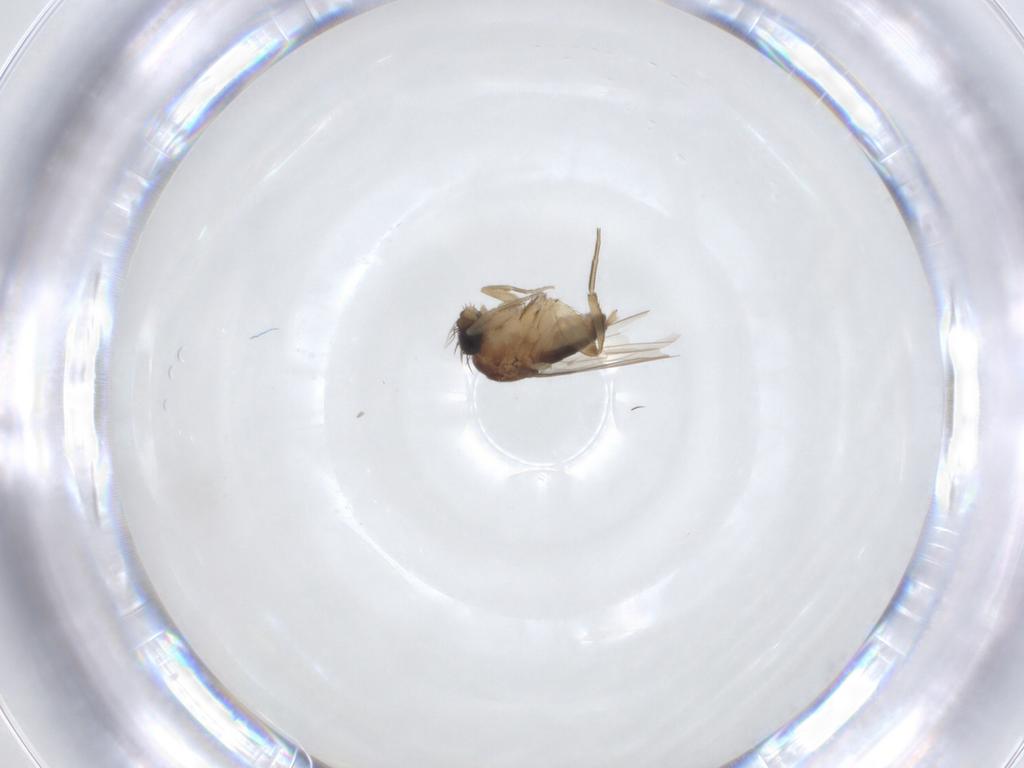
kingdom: Animalia
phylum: Arthropoda
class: Insecta
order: Diptera
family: Phoridae
